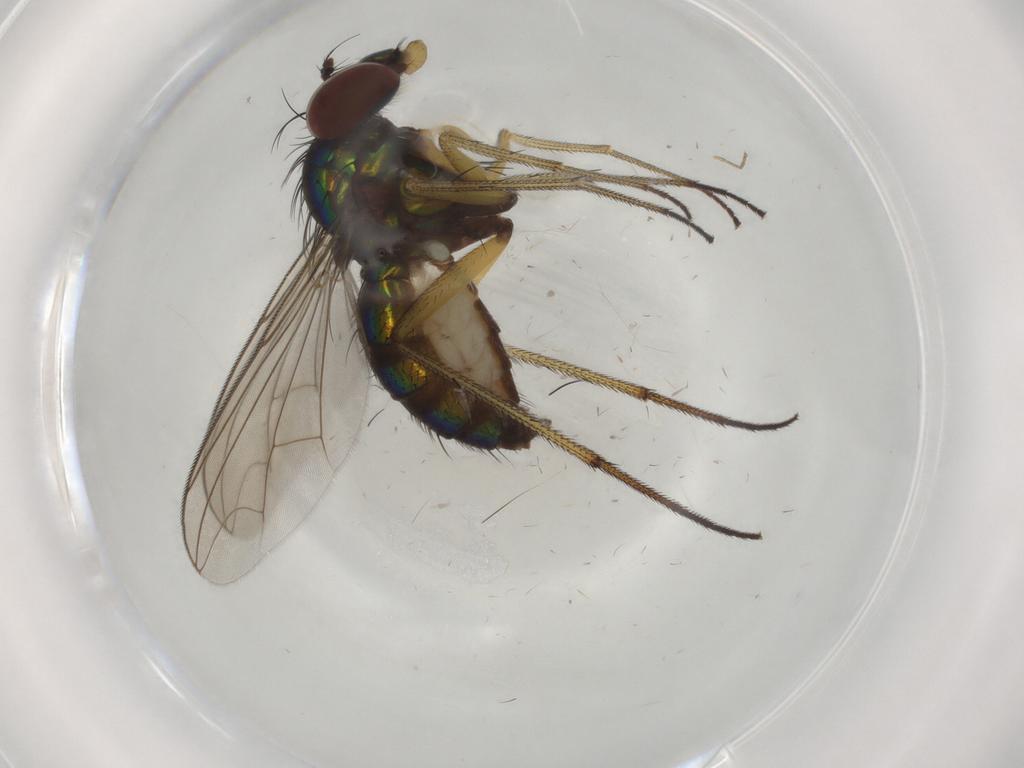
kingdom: Animalia
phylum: Arthropoda
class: Insecta
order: Diptera
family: Dolichopodidae
